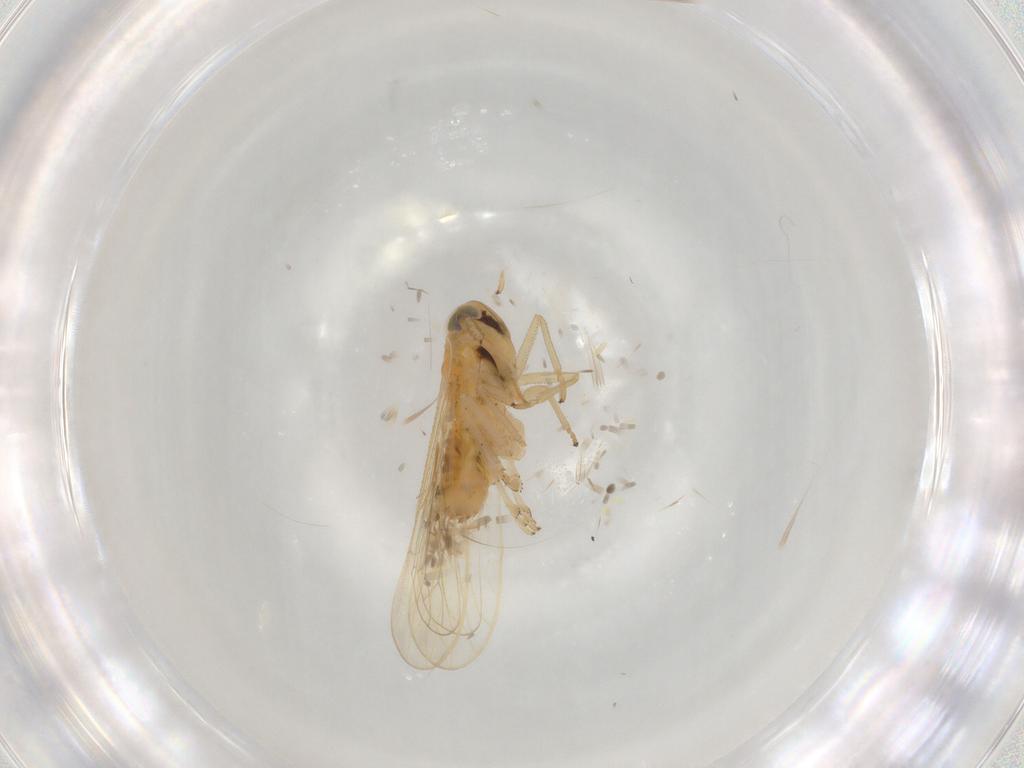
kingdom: Animalia
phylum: Arthropoda
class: Insecta
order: Hemiptera
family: Delphacidae
